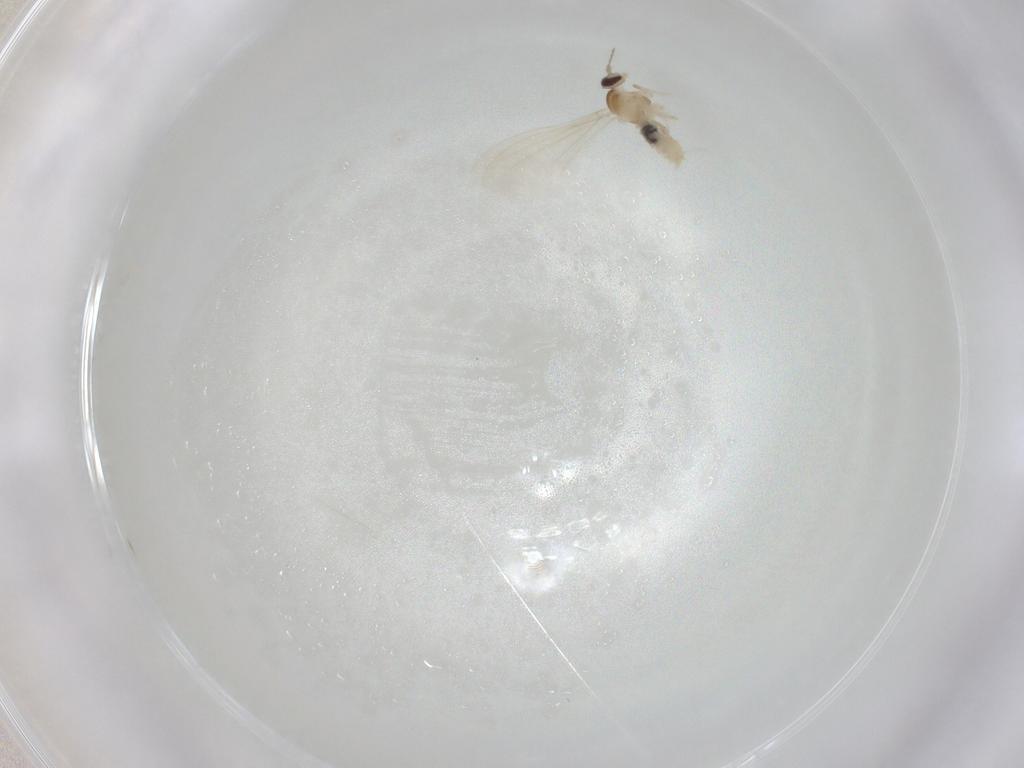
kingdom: Animalia
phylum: Arthropoda
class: Insecta
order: Diptera
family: Cecidomyiidae
